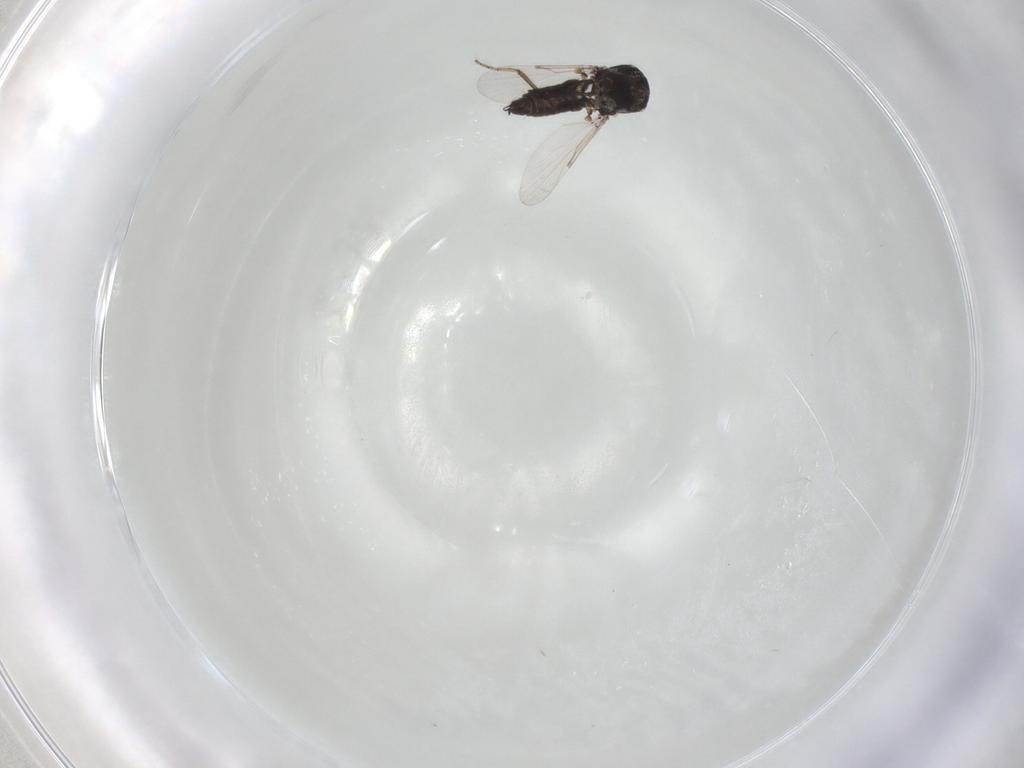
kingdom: Animalia
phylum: Arthropoda
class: Insecta
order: Diptera
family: Ceratopogonidae
